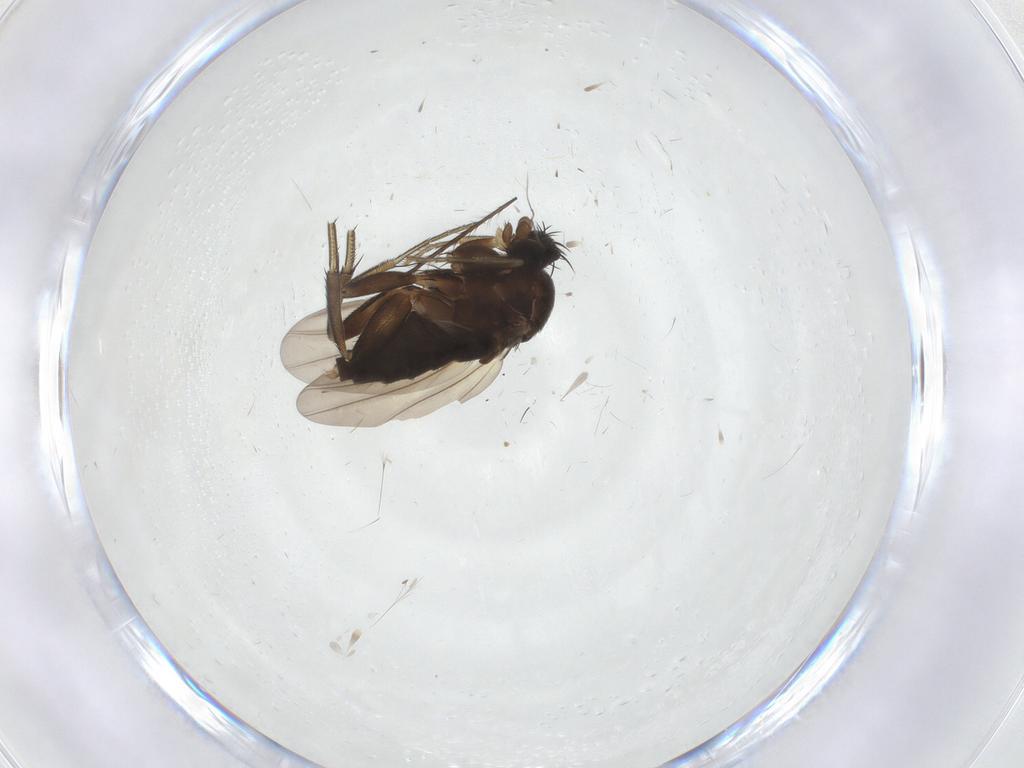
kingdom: Animalia
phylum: Arthropoda
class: Insecta
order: Diptera
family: Phoridae
